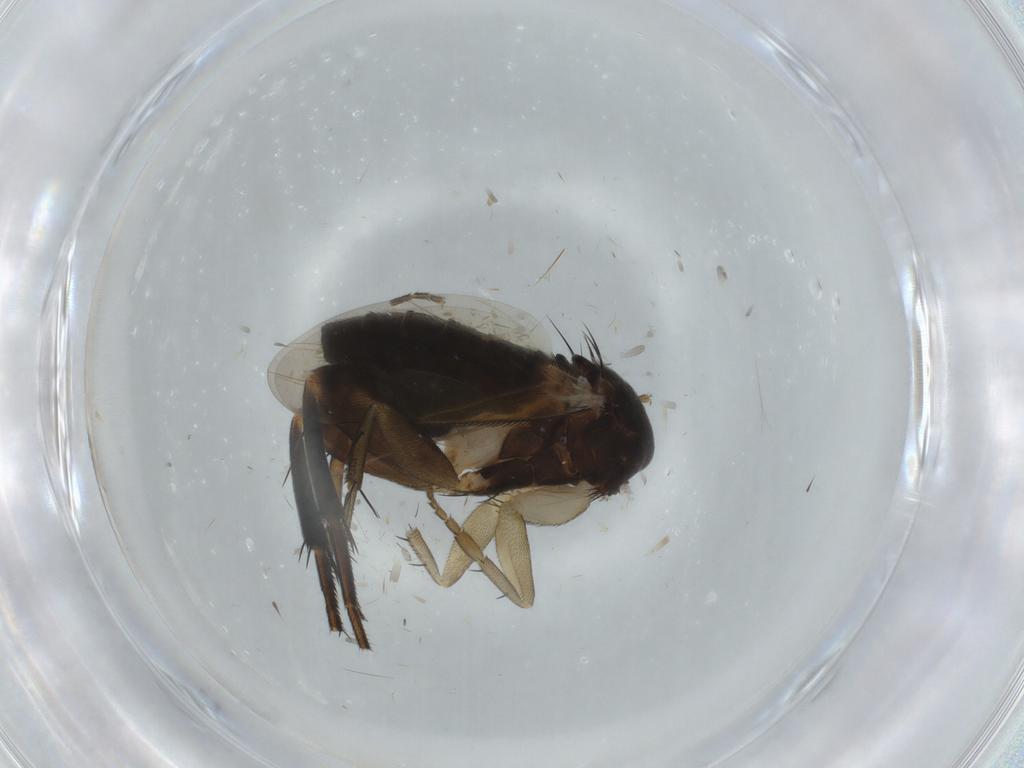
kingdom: Animalia
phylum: Arthropoda
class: Insecta
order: Diptera
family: Phoridae
